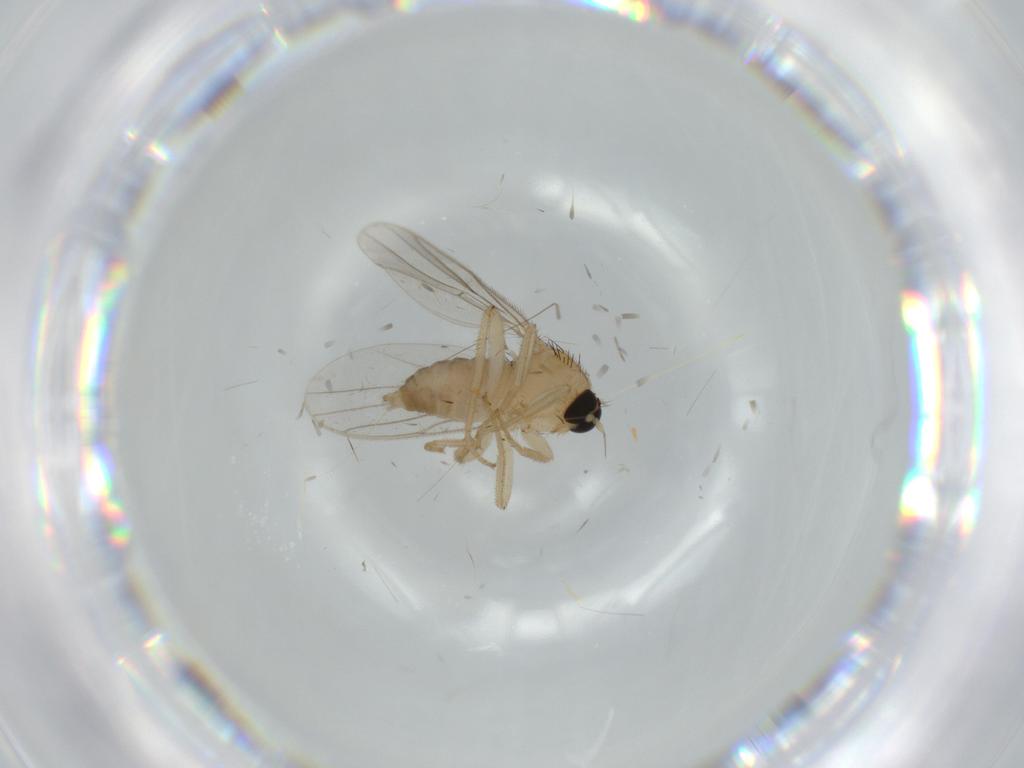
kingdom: Animalia
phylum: Arthropoda
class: Insecta
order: Diptera
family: Hybotidae
